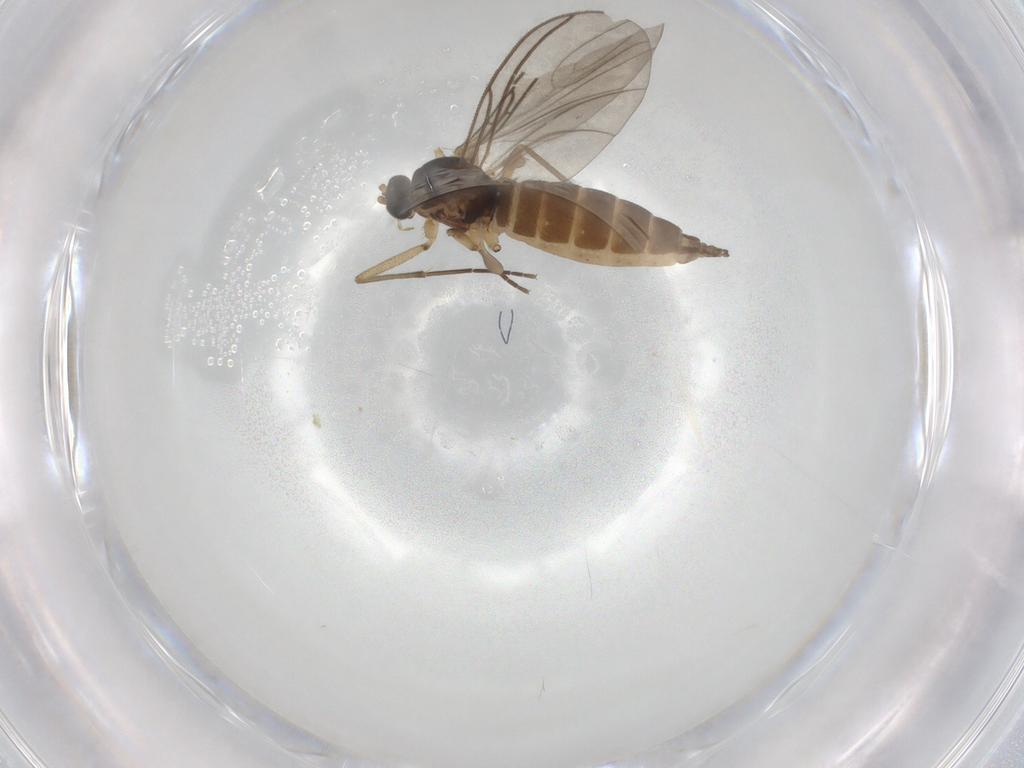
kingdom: Animalia
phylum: Arthropoda
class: Insecta
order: Diptera
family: Sciaridae
